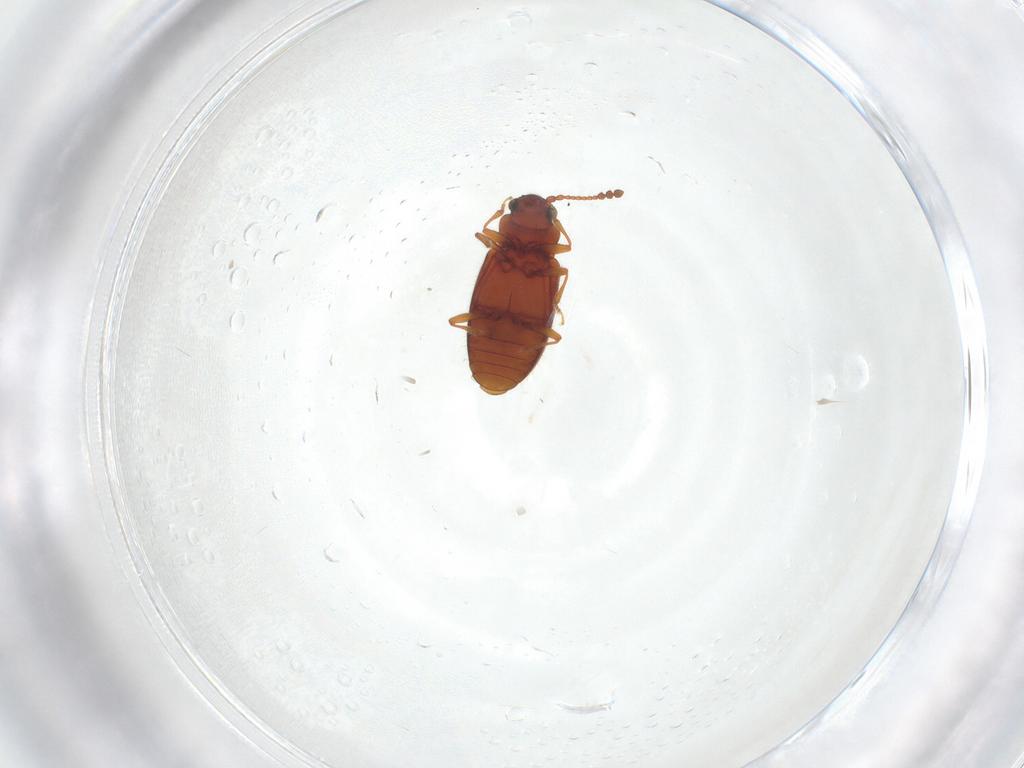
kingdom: Animalia
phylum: Arthropoda
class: Insecta
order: Coleoptera
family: Cryptophagidae
